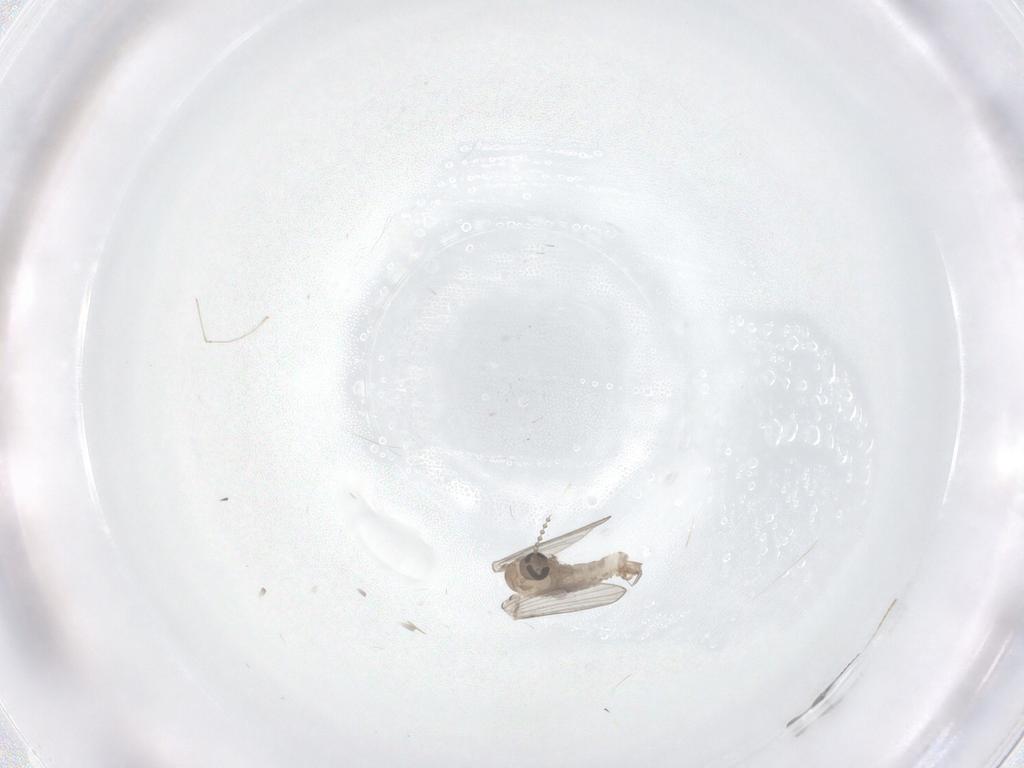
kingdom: Animalia
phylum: Arthropoda
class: Insecta
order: Diptera
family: Psychodidae
